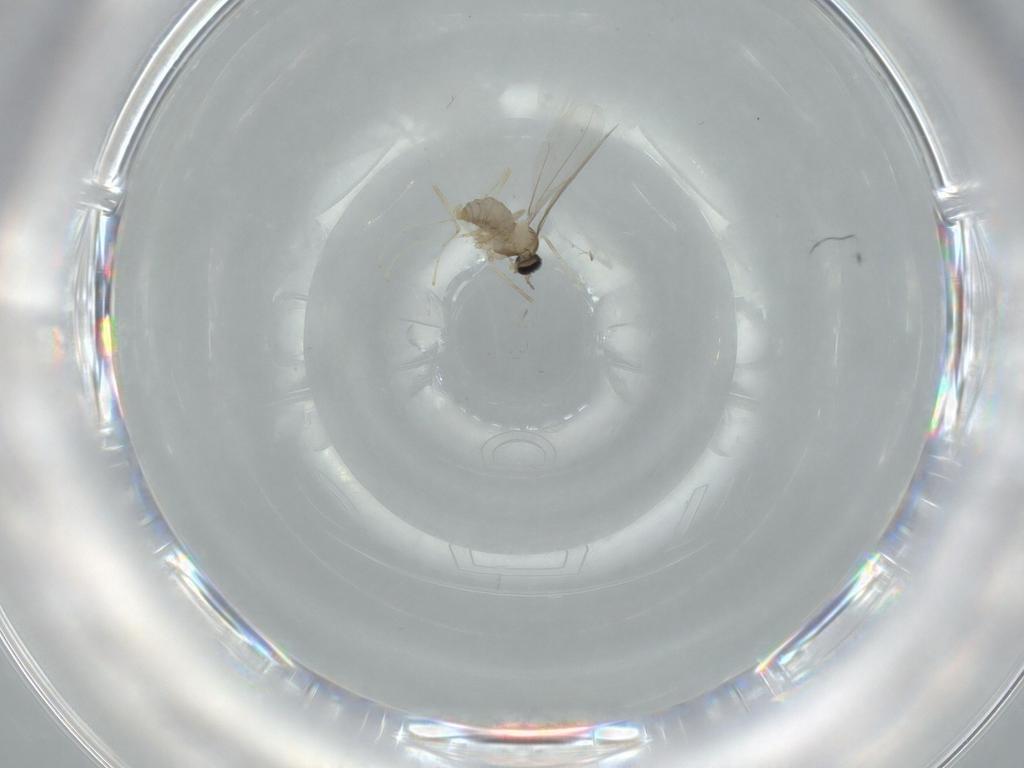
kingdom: Animalia
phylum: Arthropoda
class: Insecta
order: Diptera
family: Cecidomyiidae
